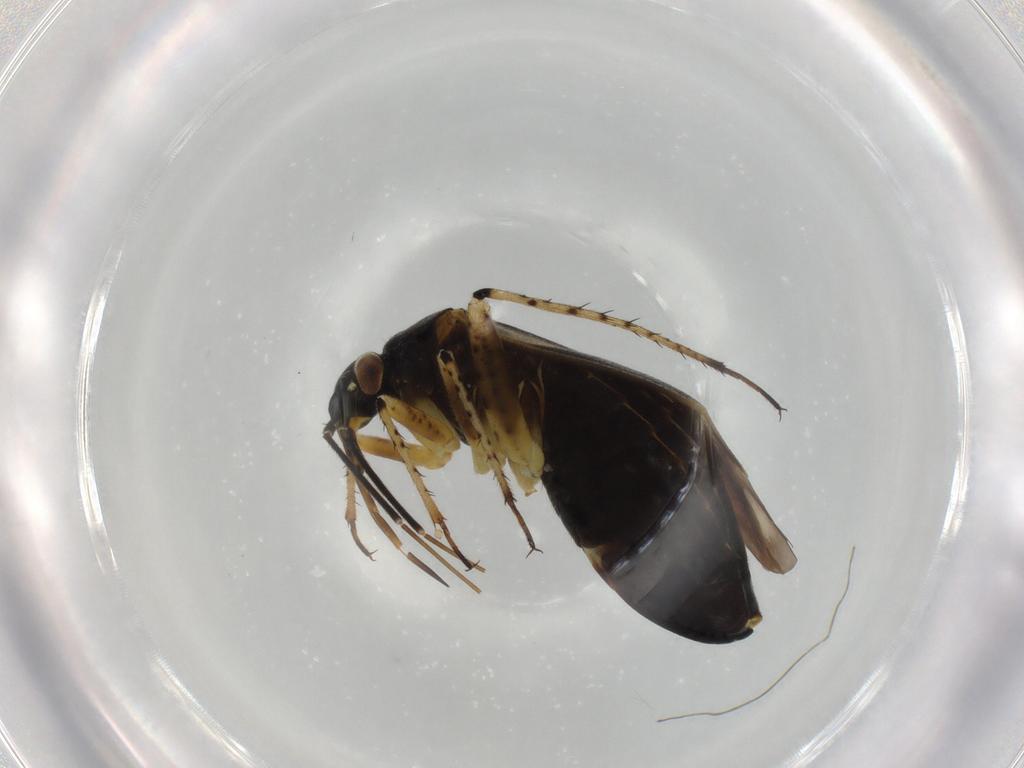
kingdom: Animalia
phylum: Arthropoda
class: Insecta
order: Hemiptera
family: Miridae
